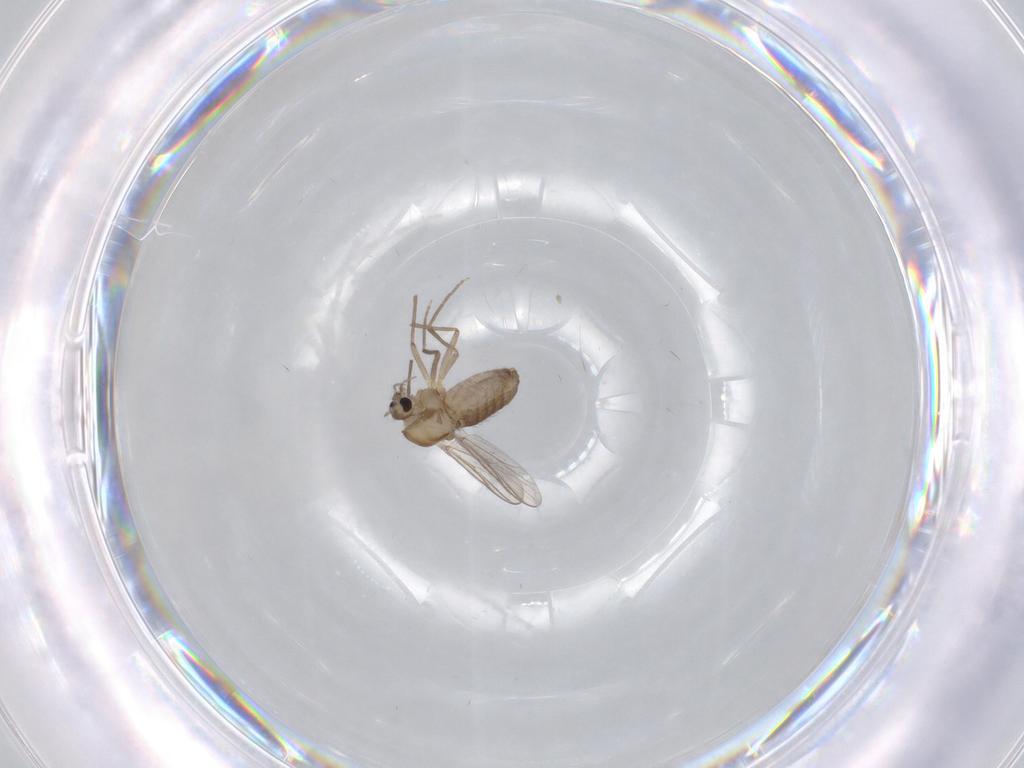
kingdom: Animalia
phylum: Arthropoda
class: Insecta
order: Diptera
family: Chironomidae
